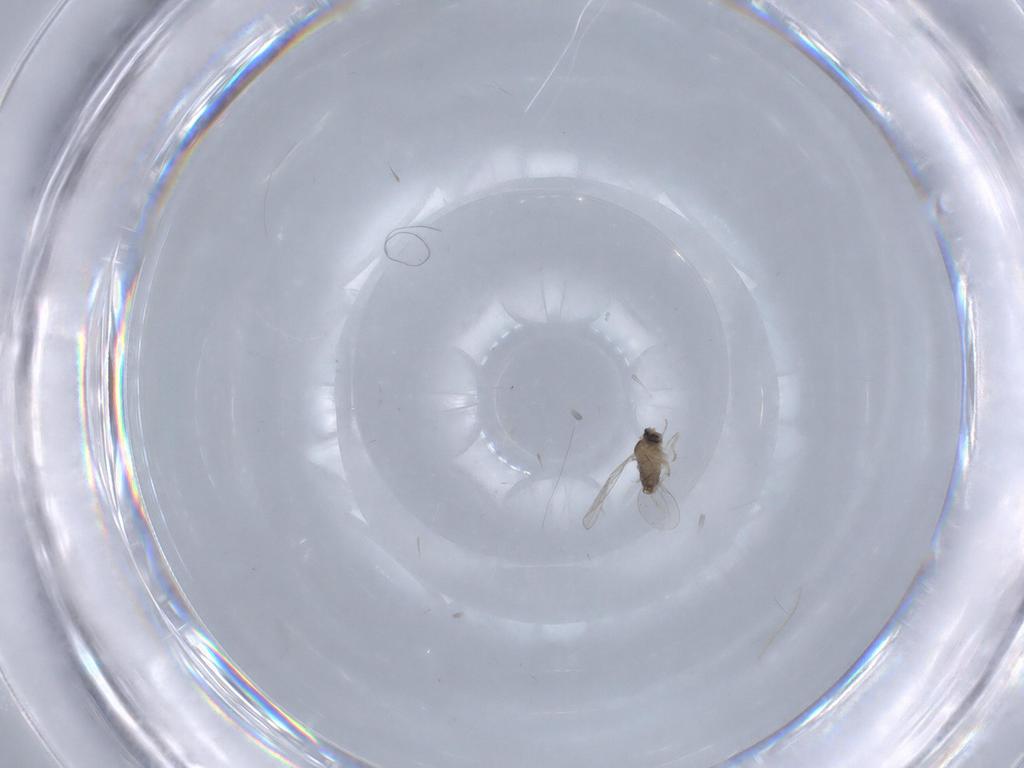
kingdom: Animalia
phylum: Arthropoda
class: Insecta
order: Diptera
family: Cecidomyiidae
